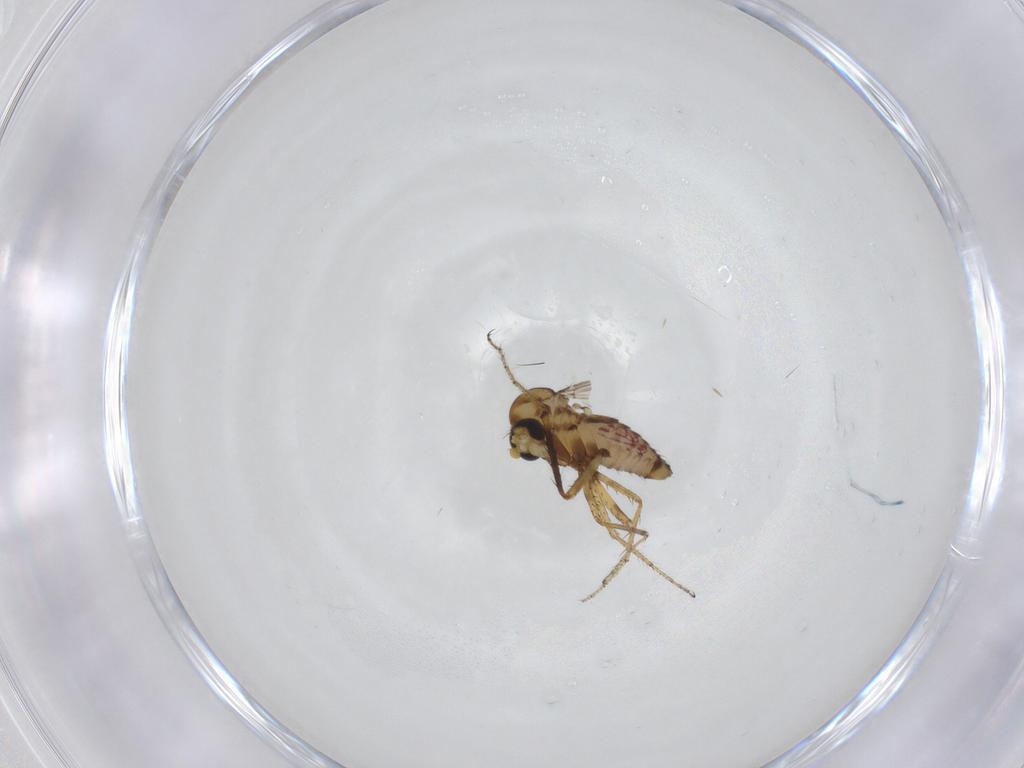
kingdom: Animalia
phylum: Arthropoda
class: Insecta
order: Diptera
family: Ceratopogonidae
